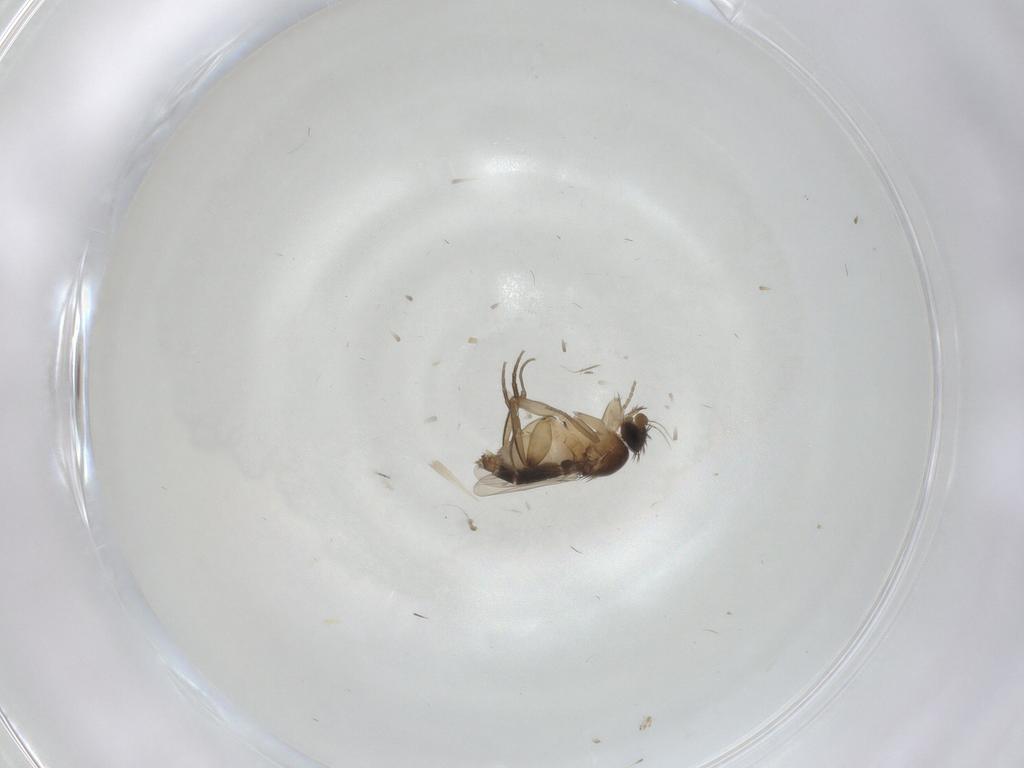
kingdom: Animalia
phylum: Arthropoda
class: Insecta
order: Diptera
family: Phoridae
